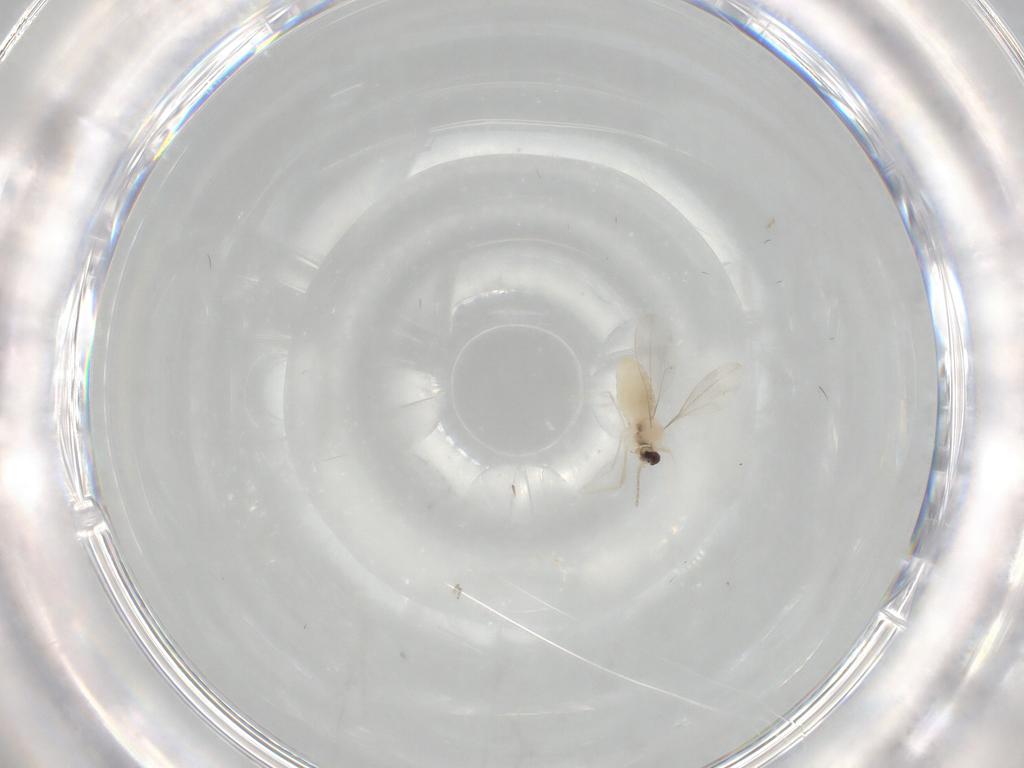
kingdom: Animalia
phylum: Arthropoda
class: Insecta
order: Diptera
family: Cecidomyiidae
